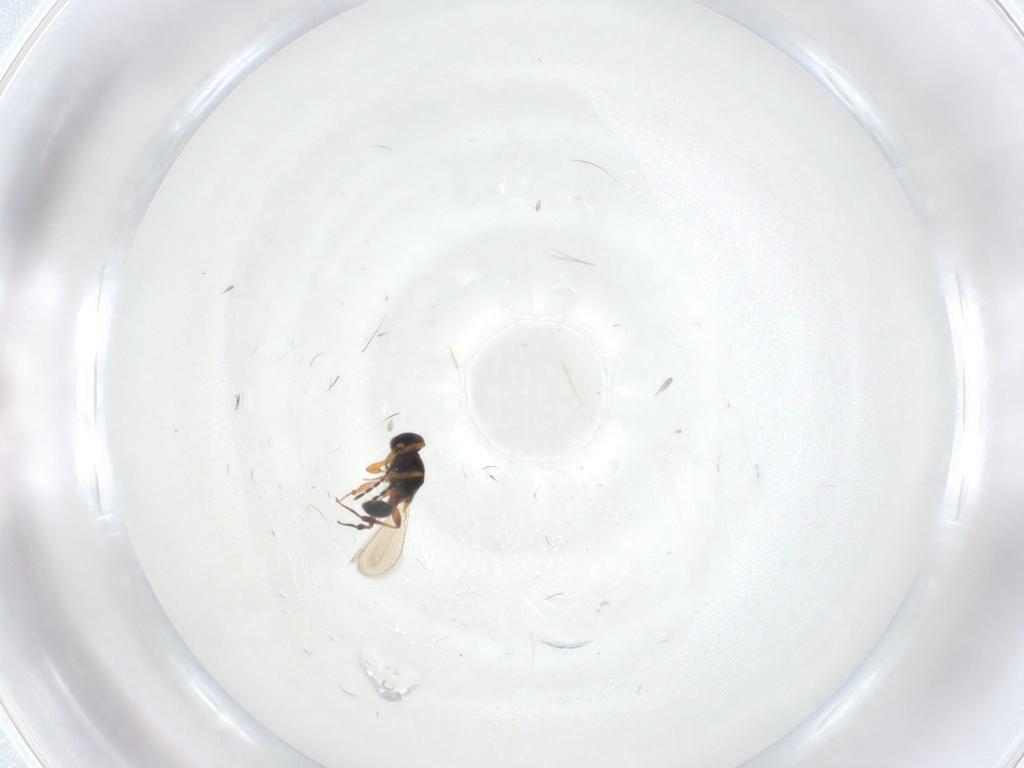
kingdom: Animalia
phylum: Arthropoda
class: Insecta
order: Hymenoptera
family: Platygastridae
